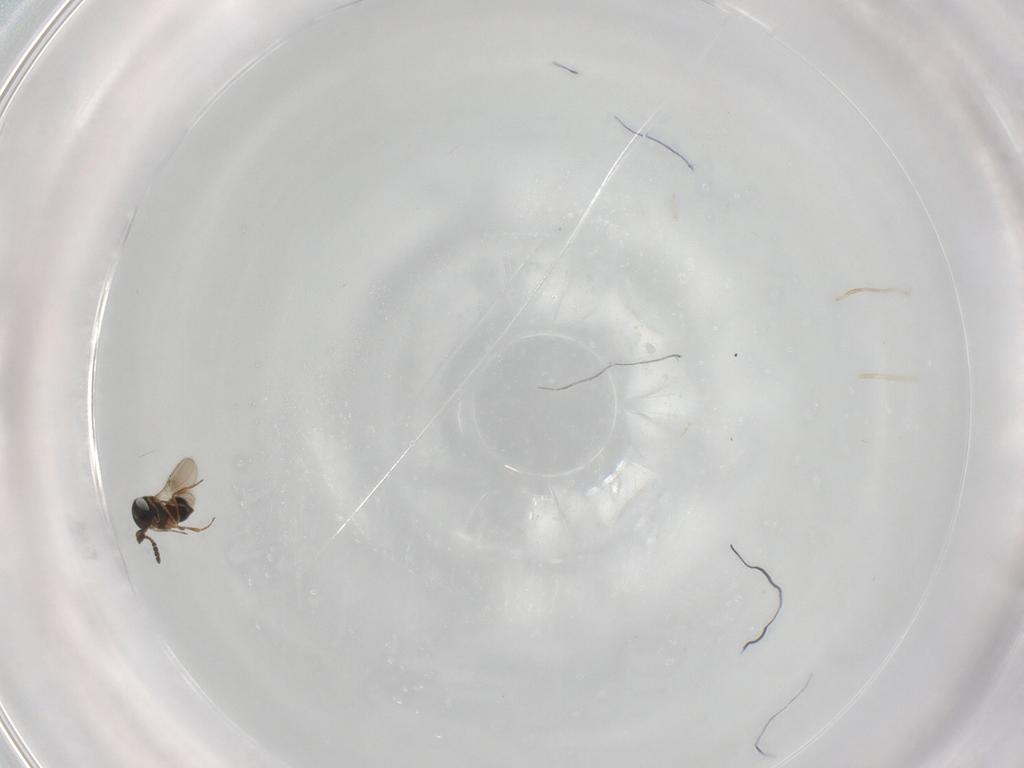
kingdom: Animalia
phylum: Arthropoda
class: Insecta
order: Hymenoptera
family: Scelionidae
